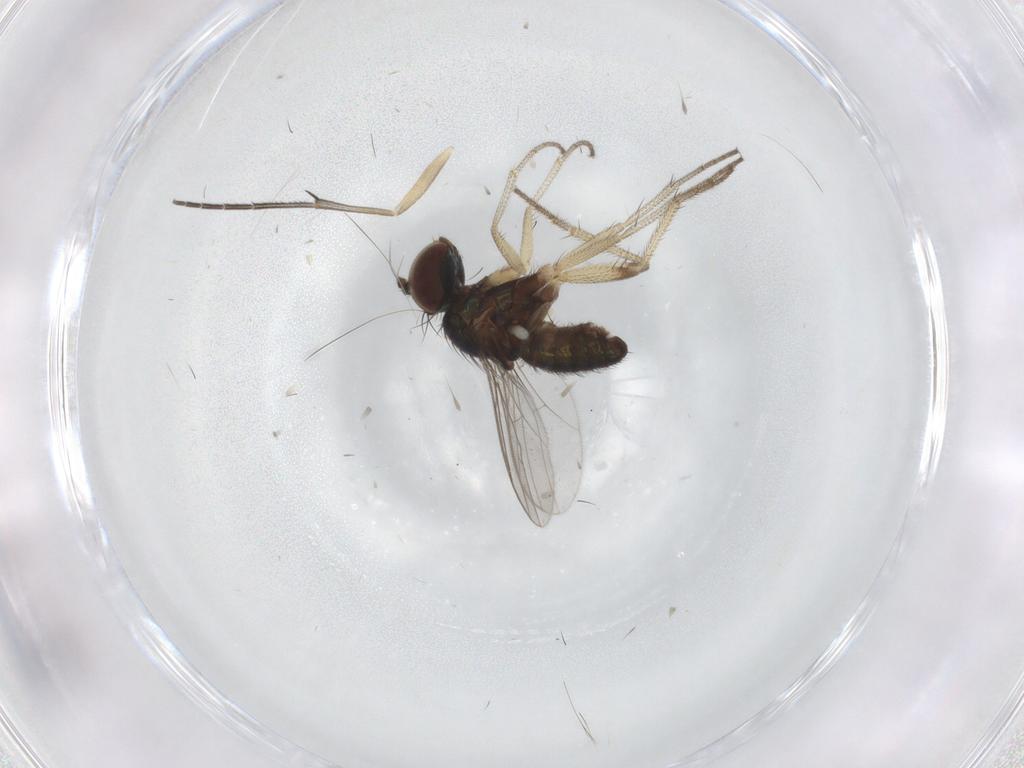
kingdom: Animalia
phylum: Arthropoda
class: Insecta
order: Diptera
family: Dolichopodidae
